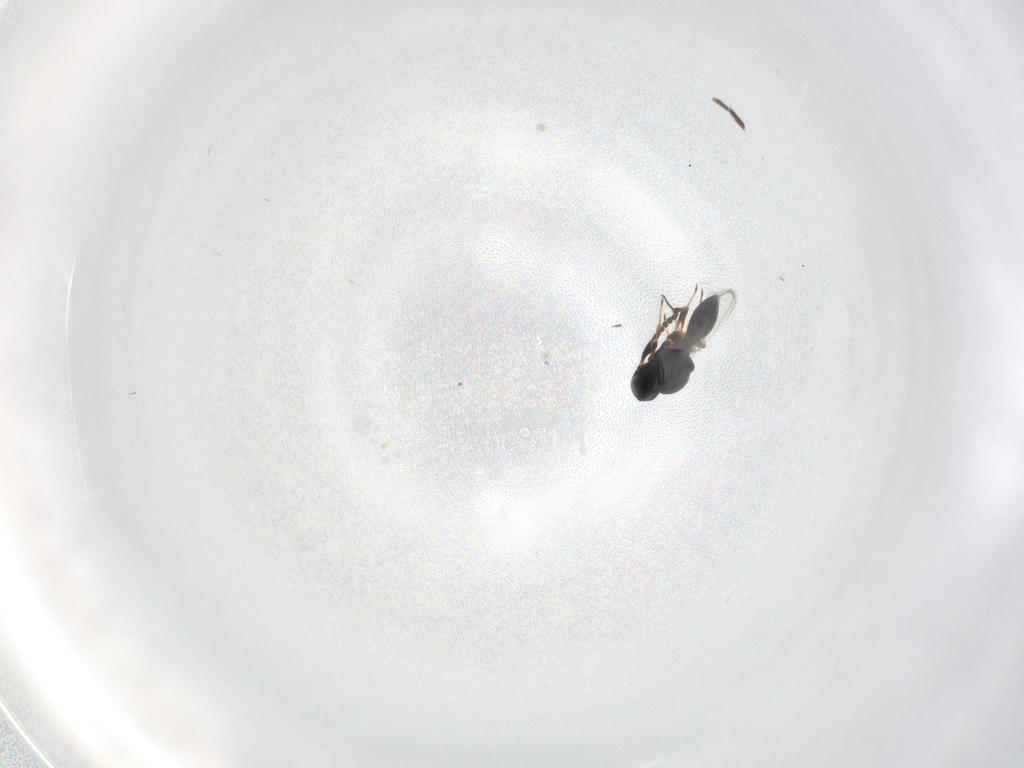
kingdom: Animalia
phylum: Arthropoda
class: Insecta
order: Hymenoptera
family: Platygastridae
